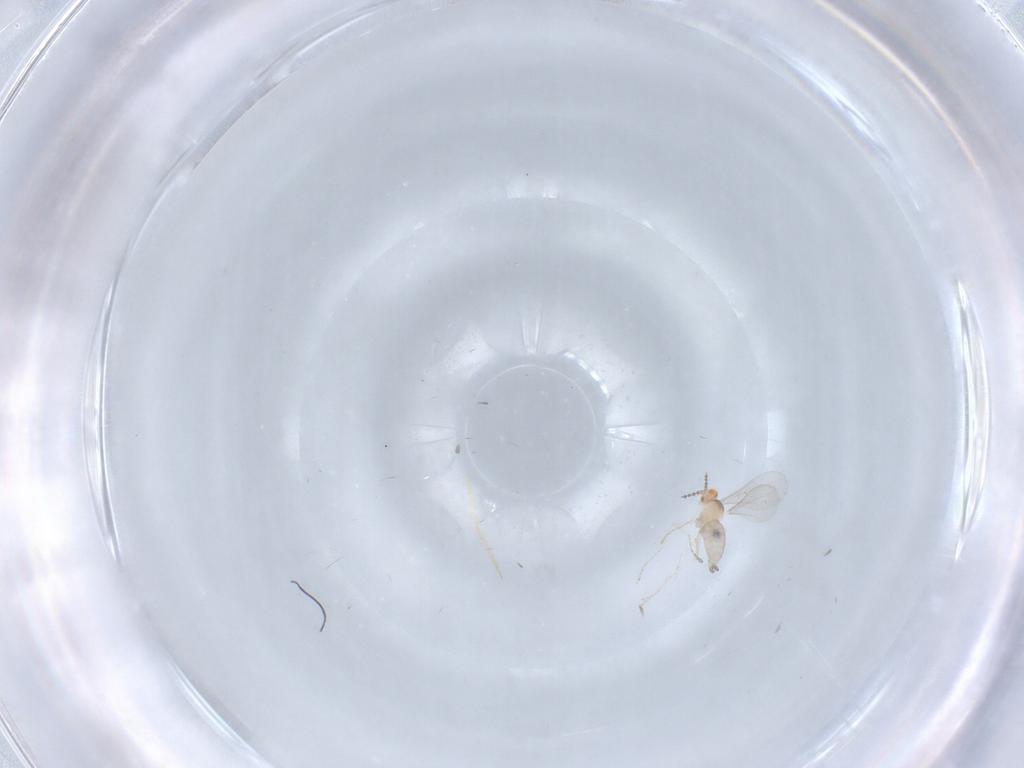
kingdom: Animalia
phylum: Arthropoda
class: Insecta
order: Diptera
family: Cecidomyiidae
